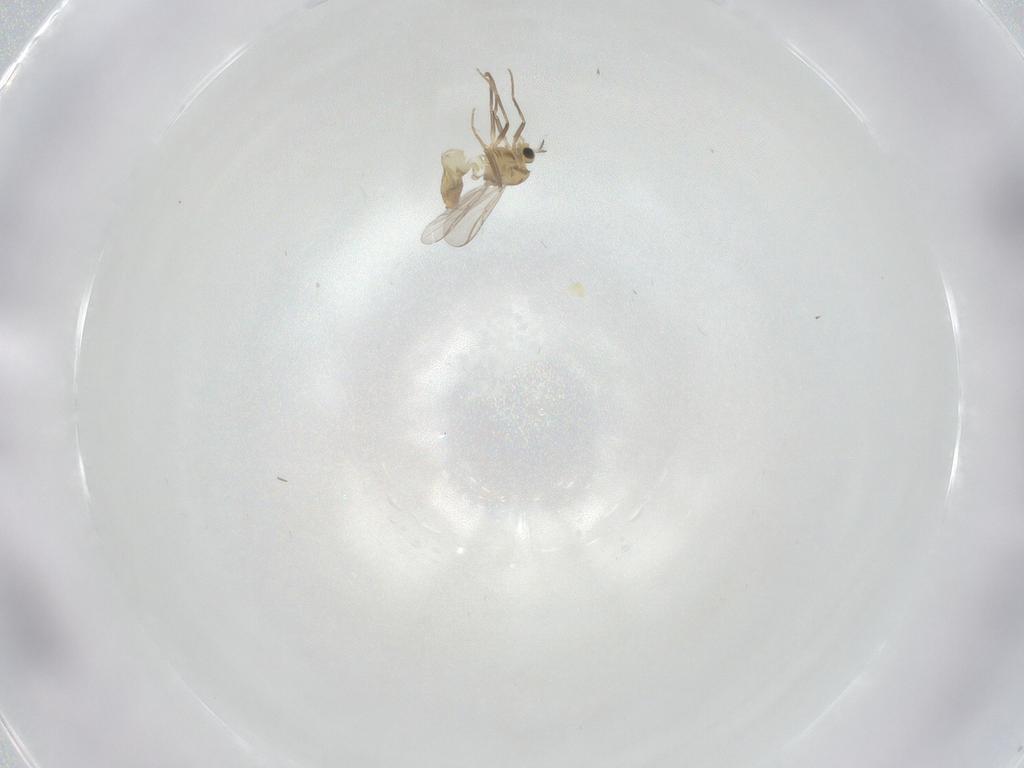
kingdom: Animalia
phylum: Arthropoda
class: Insecta
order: Diptera
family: Chironomidae
